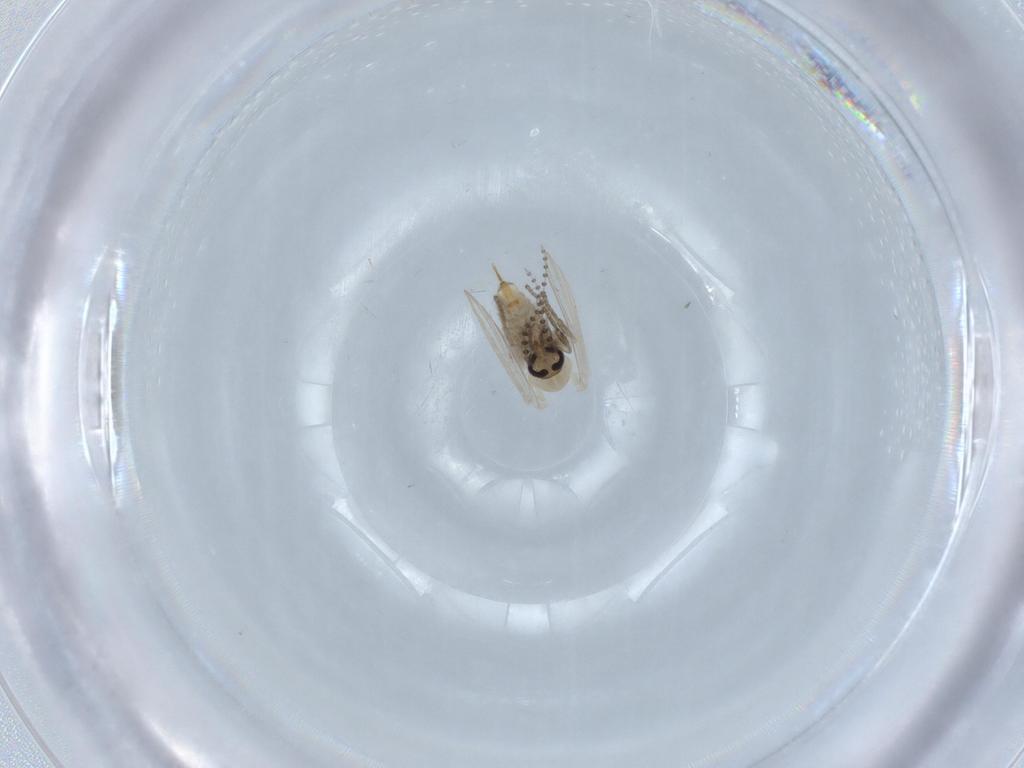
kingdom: Animalia
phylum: Arthropoda
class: Insecta
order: Diptera
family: Psychodidae
